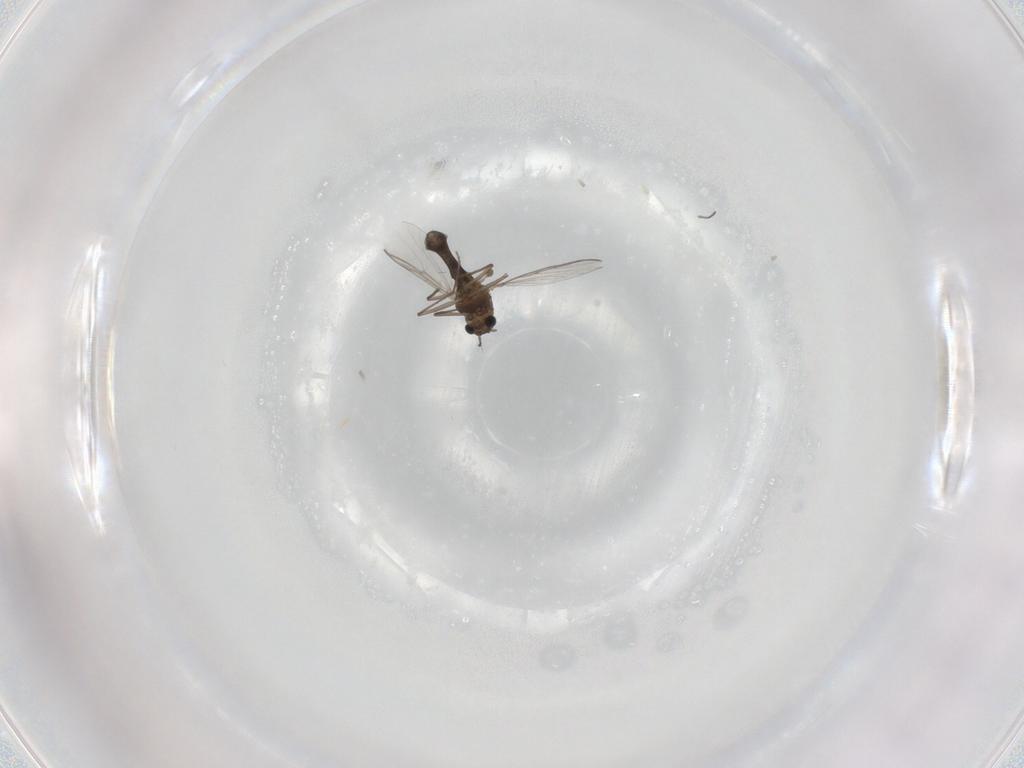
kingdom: Animalia
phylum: Arthropoda
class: Insecta
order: Diptera
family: Chironomidae
